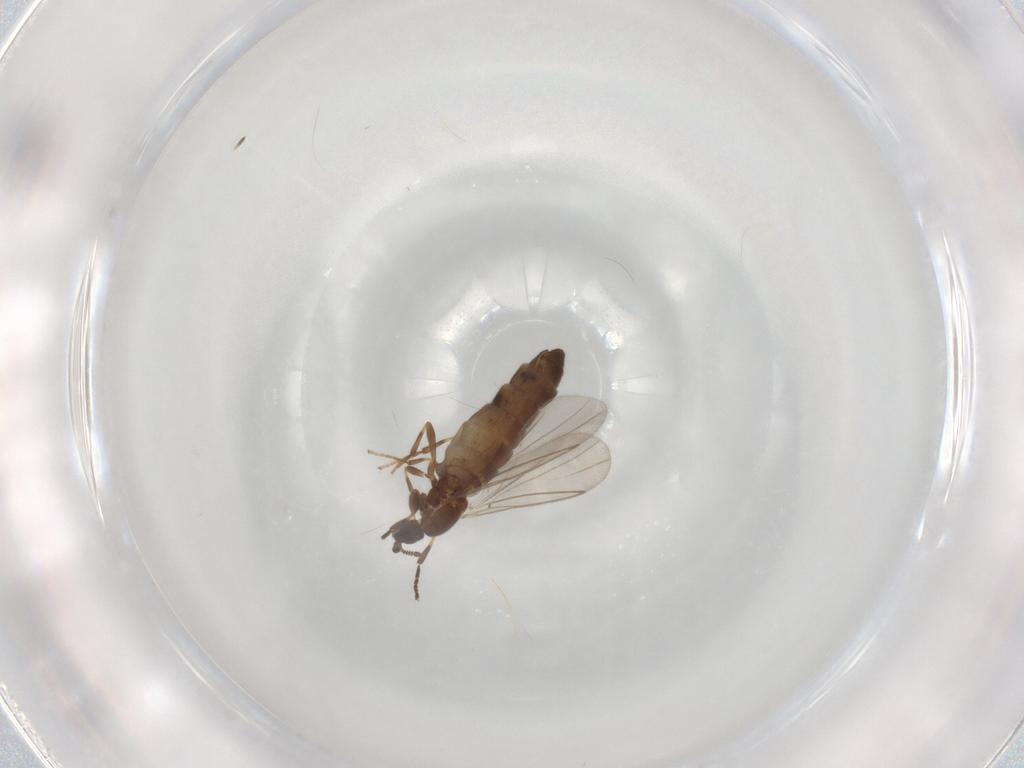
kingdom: Animalia
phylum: Arthropoda
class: Insecta
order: Diptera
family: Scatopsidae
